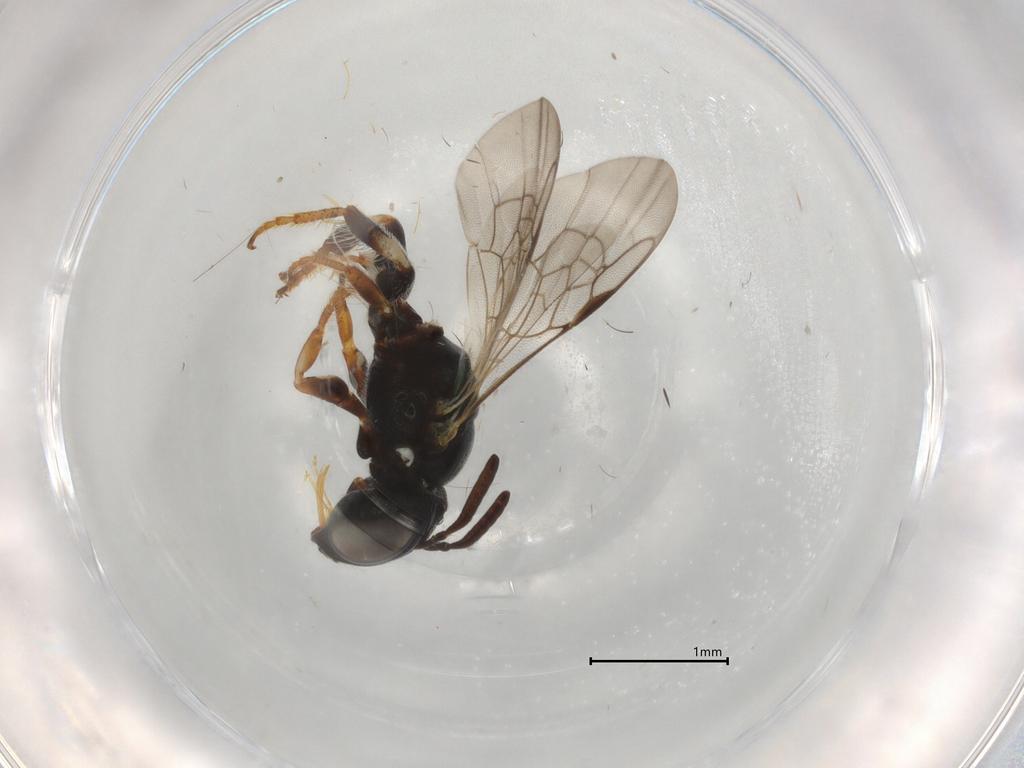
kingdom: Animalia
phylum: Arthropoda
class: Insecta
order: Hymenoptera
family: Apidae
